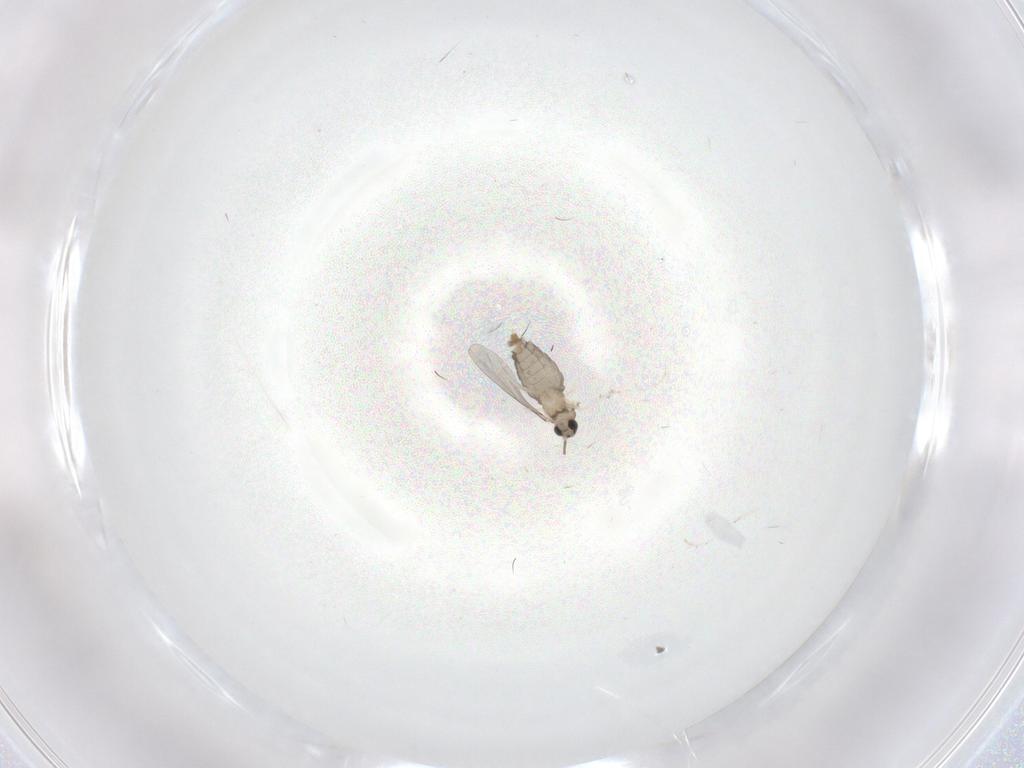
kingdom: Animalia
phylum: Arthropoda
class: Insecta
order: Diptera
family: Cecidomyiidae
